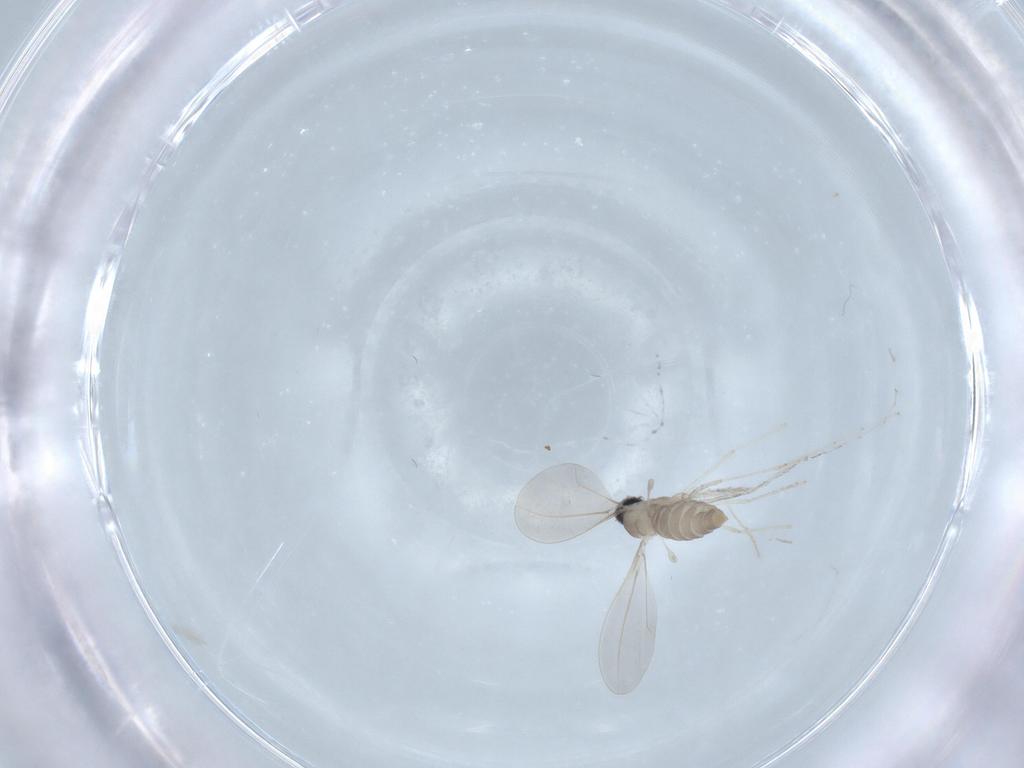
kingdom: Animalia
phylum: Arthropoda
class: Insecta
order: Diptera
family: Cecidomyiidae
